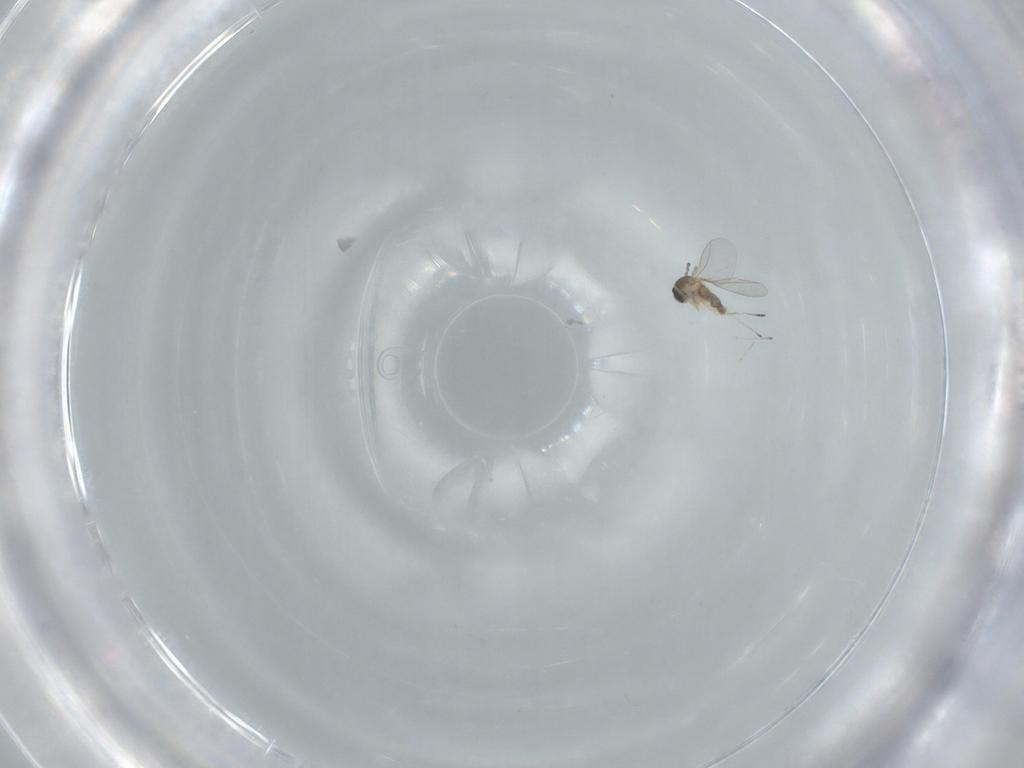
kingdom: Animalia
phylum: Arthropoda
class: Insecta
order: Diptera
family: Cecidomyiidae
